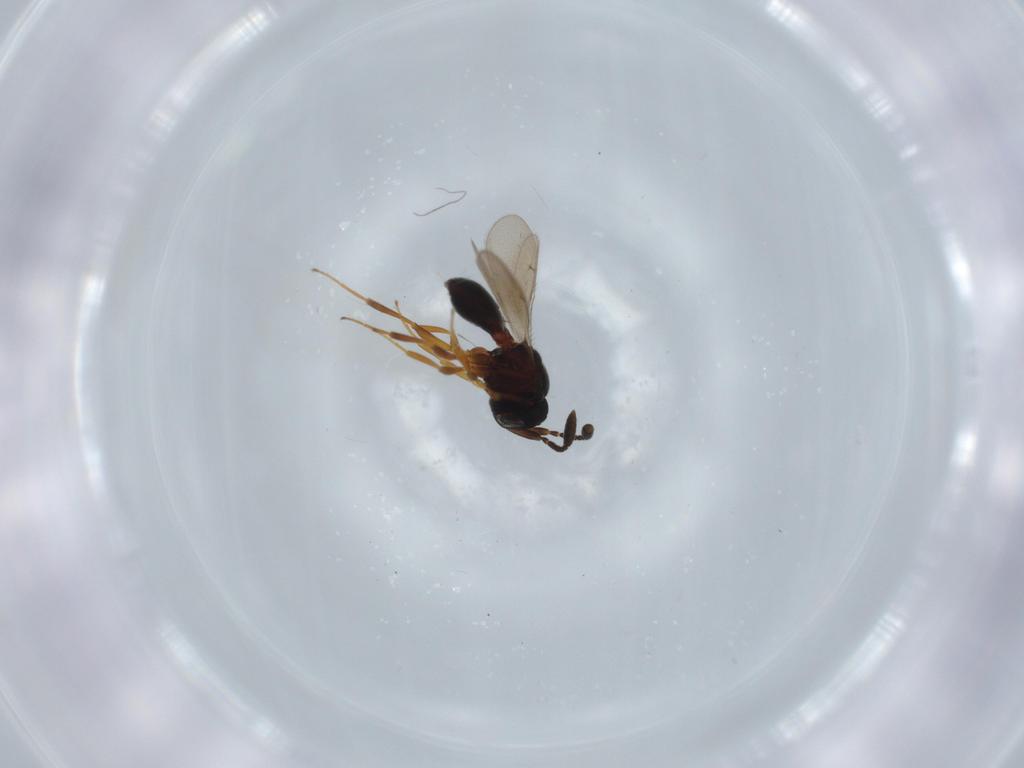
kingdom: Animalia
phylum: Arthropoda
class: Insecta
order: Hymenoptera
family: Scelionidae
